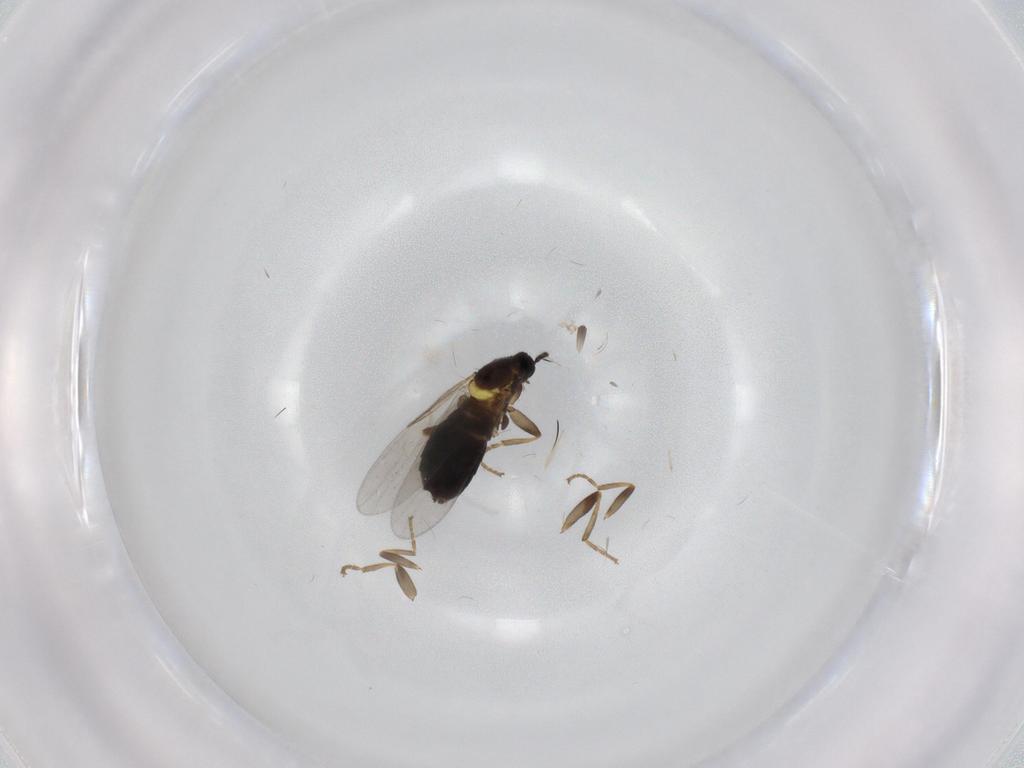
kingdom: Animalia
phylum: Arthropoda
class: Insecta
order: Diptera
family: Scatopsidae
